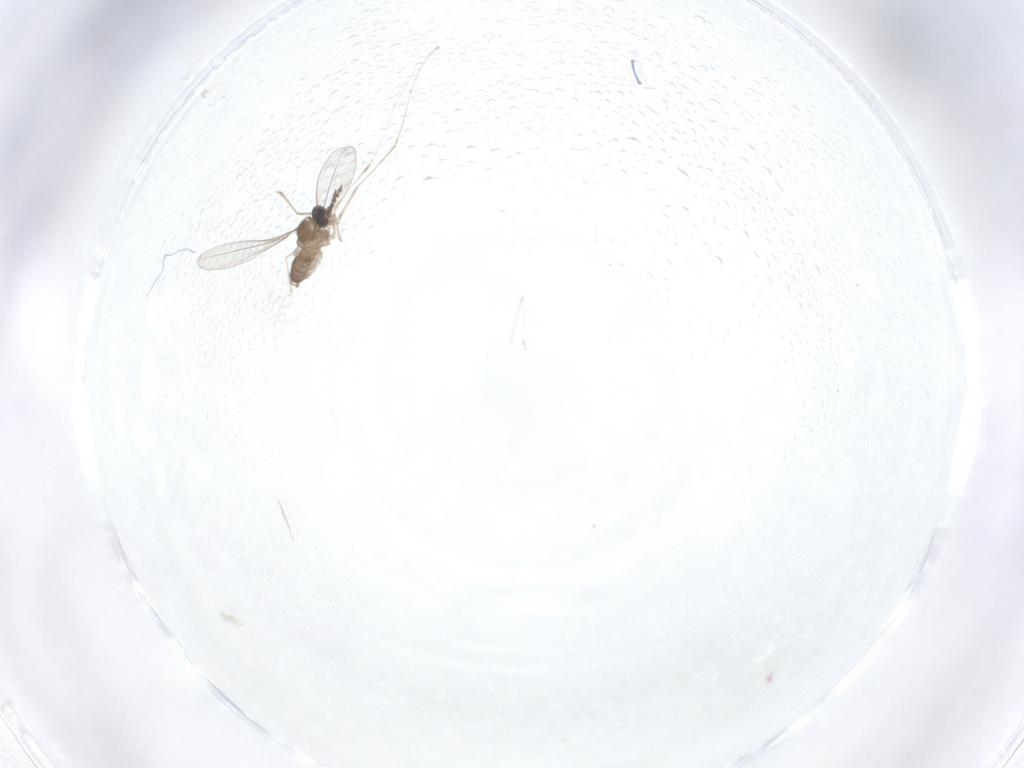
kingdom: Animalia
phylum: Arthropoda
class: Insecta
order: Diptera
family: Cecidomyiidae
